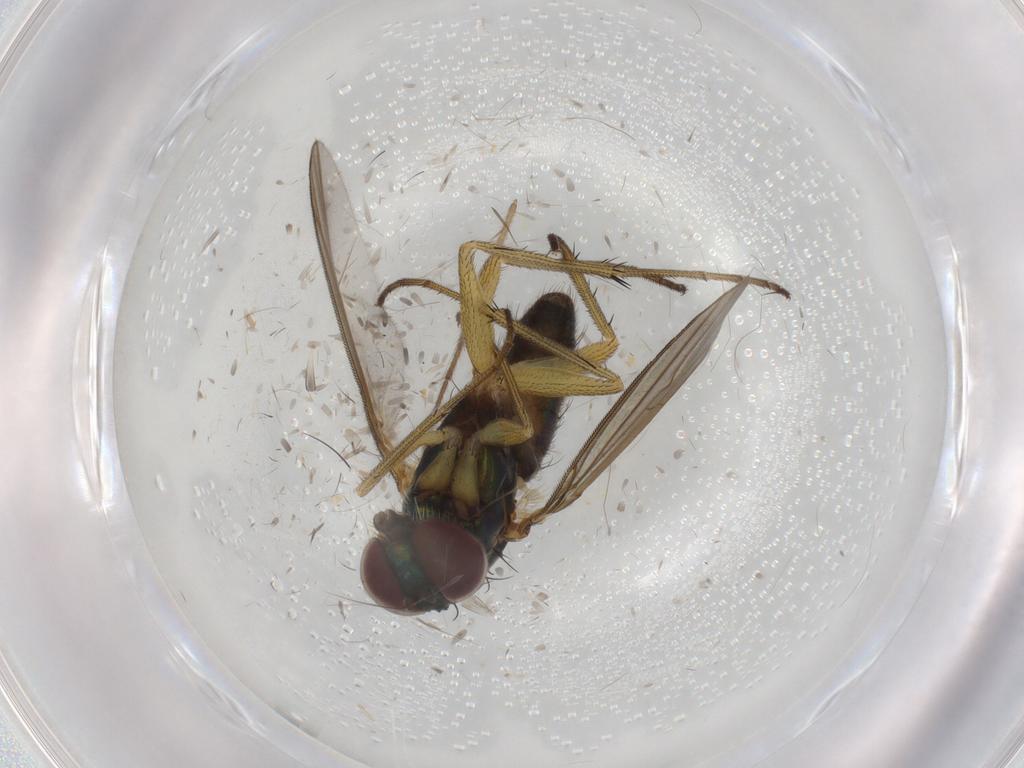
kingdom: Animalia
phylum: Arthropoda
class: Insecta
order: Diptera
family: Dolichopodidae
